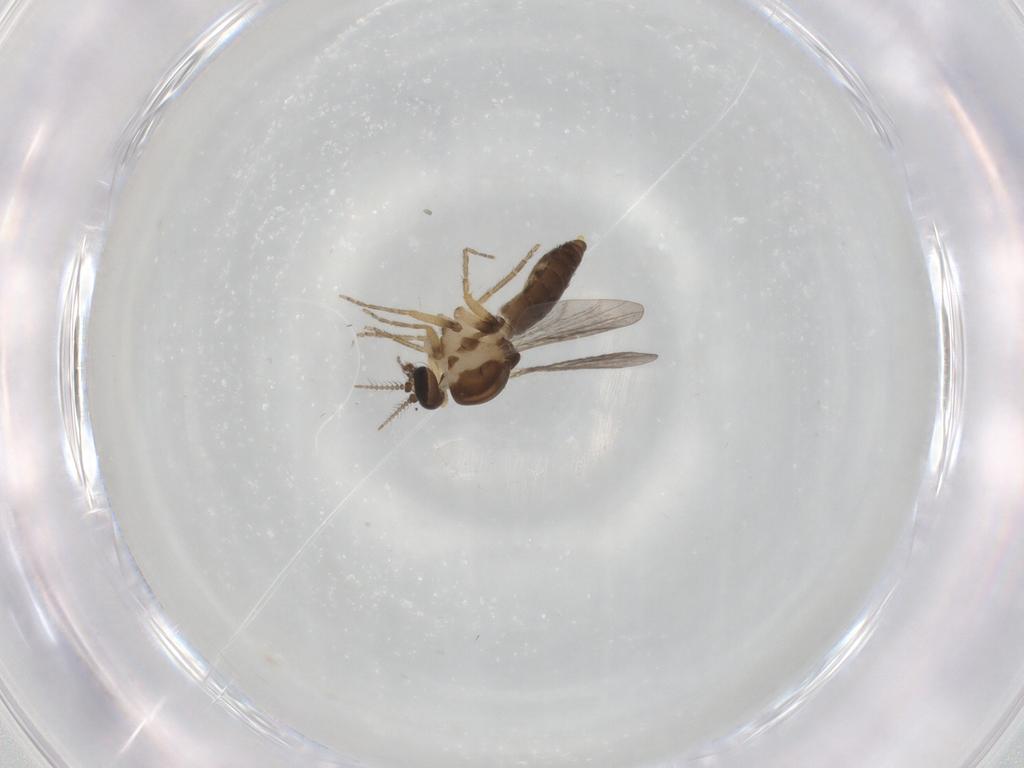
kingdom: Animalia
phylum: Arthropoda
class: Insecta
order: Diptera
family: Ceratopogonidae
